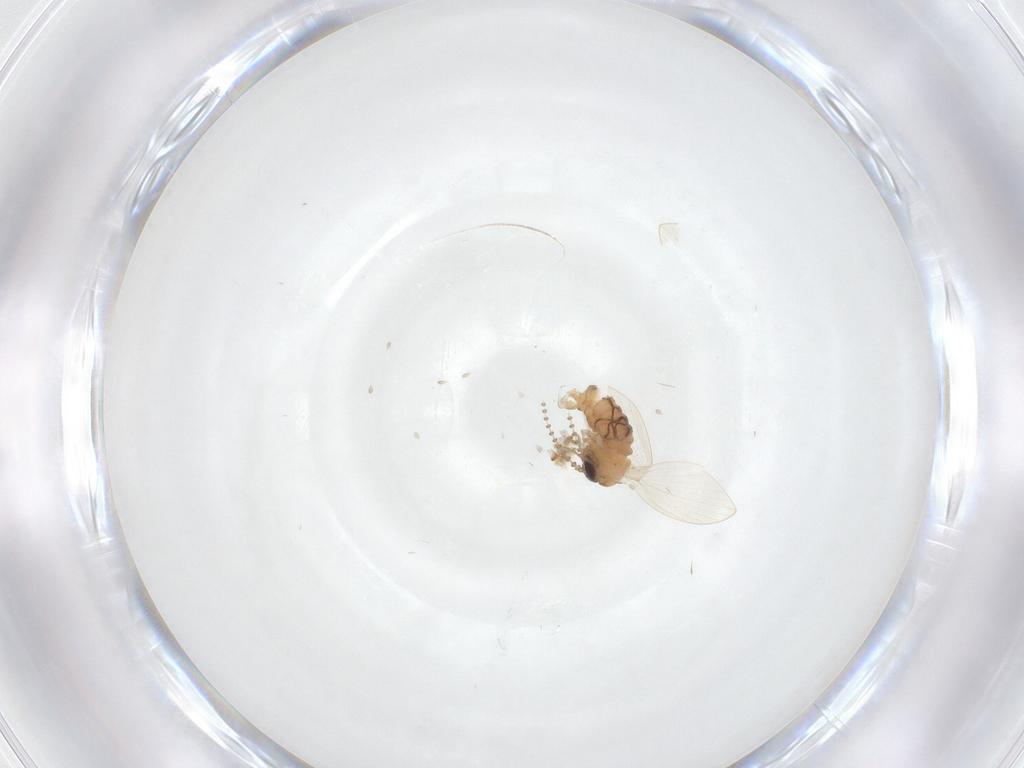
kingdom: Animalia
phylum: Arthropoda
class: Insecta
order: Diptera
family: Psychodidae
